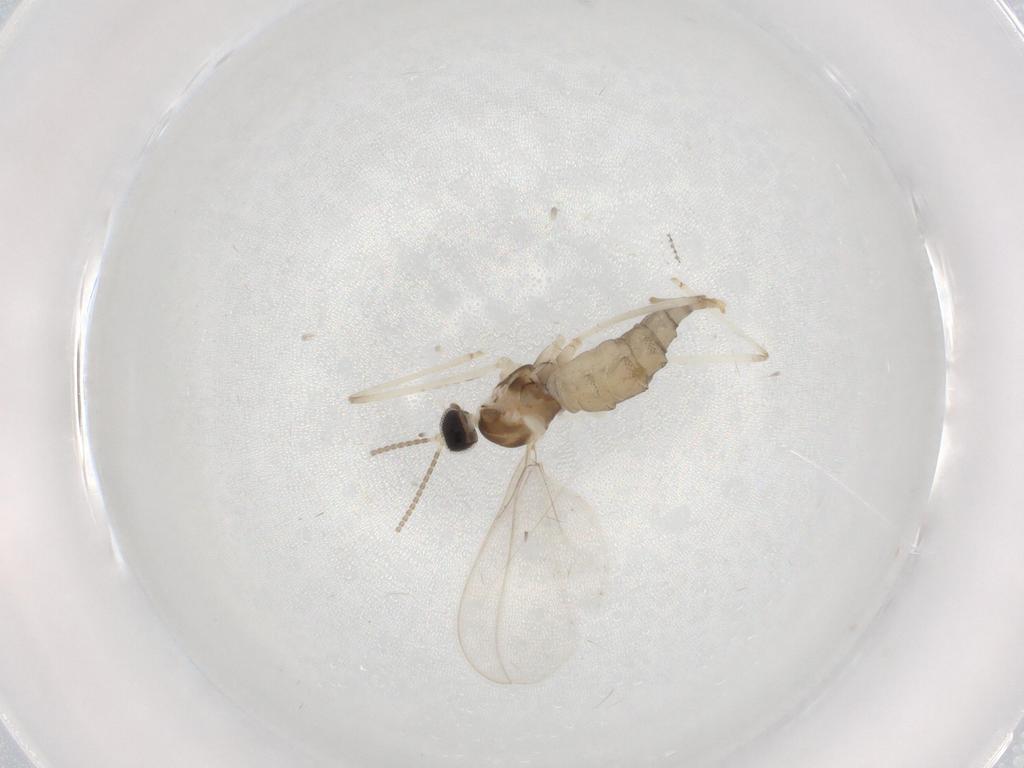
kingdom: Animalia
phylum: Arthropoda
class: Insecta
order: Diptera
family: Cecidomyiidae
